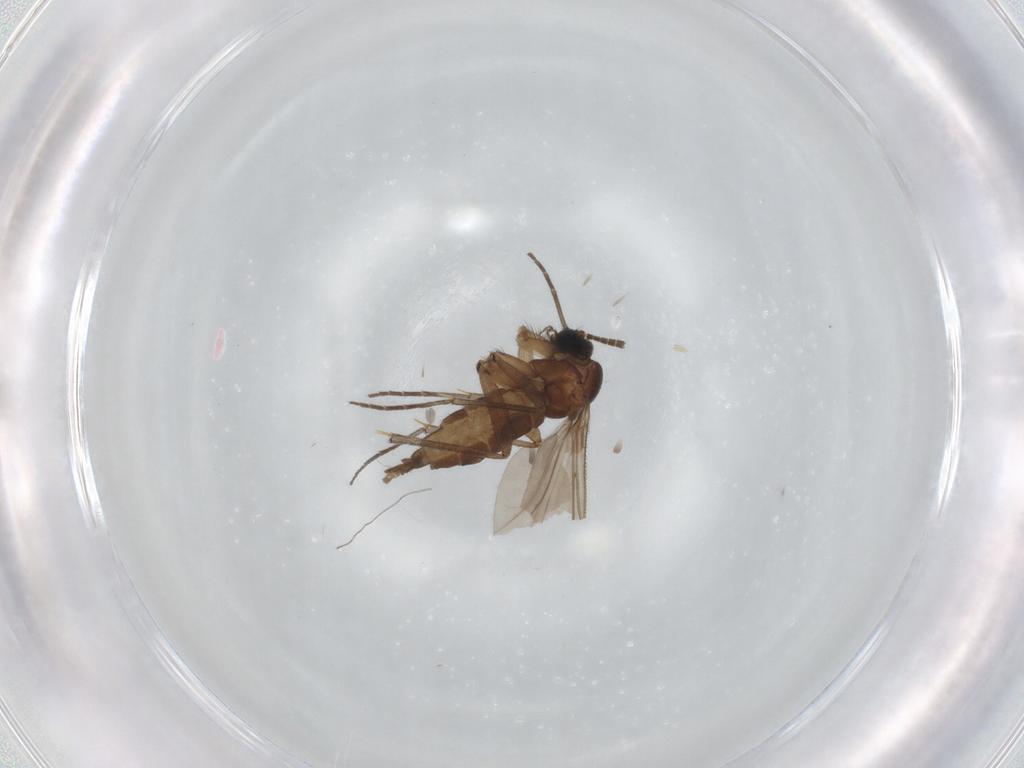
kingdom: Animalia
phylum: Arthropoda
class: Insecta
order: Diptera
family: Sciaridae
